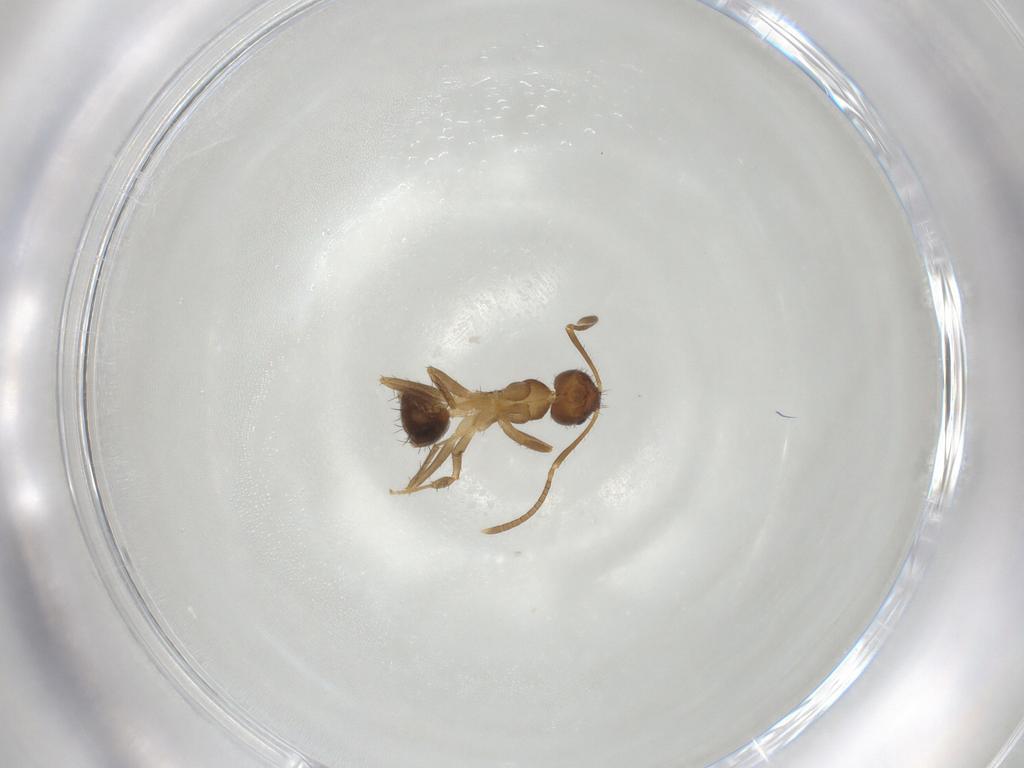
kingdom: Animalia
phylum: Arthropoda
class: Insecta
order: Hymenoptera
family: Formicidae
